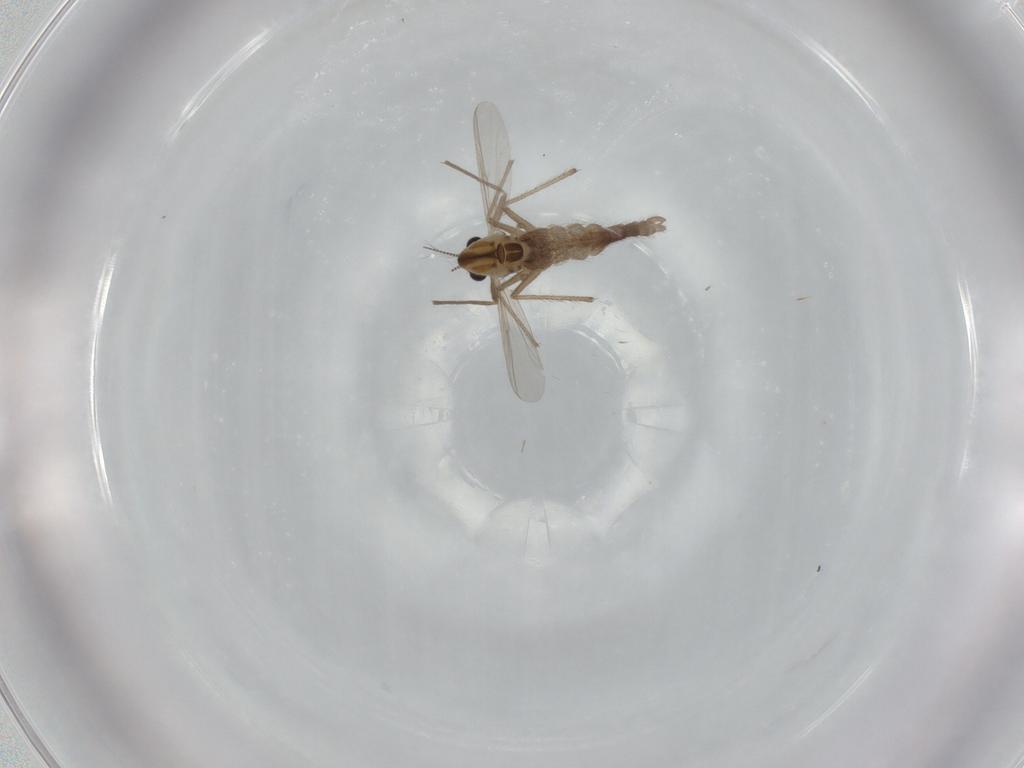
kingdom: Animalia
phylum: Arthropoda
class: Insecta
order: Diptera
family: Chironomidae
